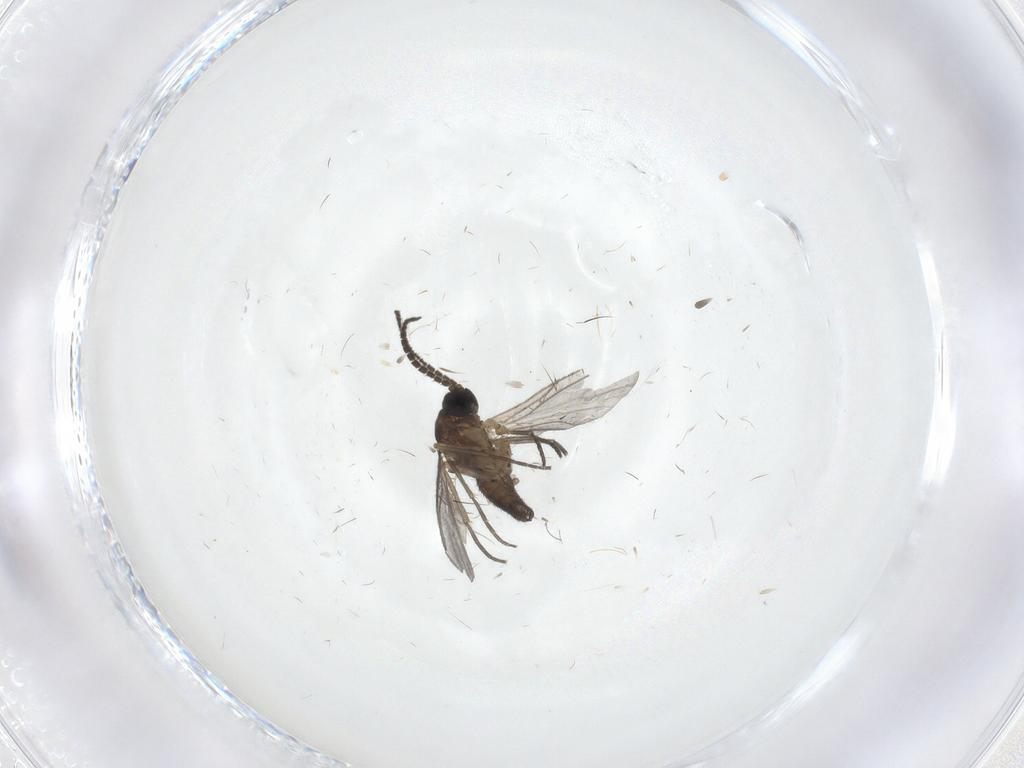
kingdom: Animalia
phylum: Arthropoda
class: Insecta
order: Diptera
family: Sciaridae
